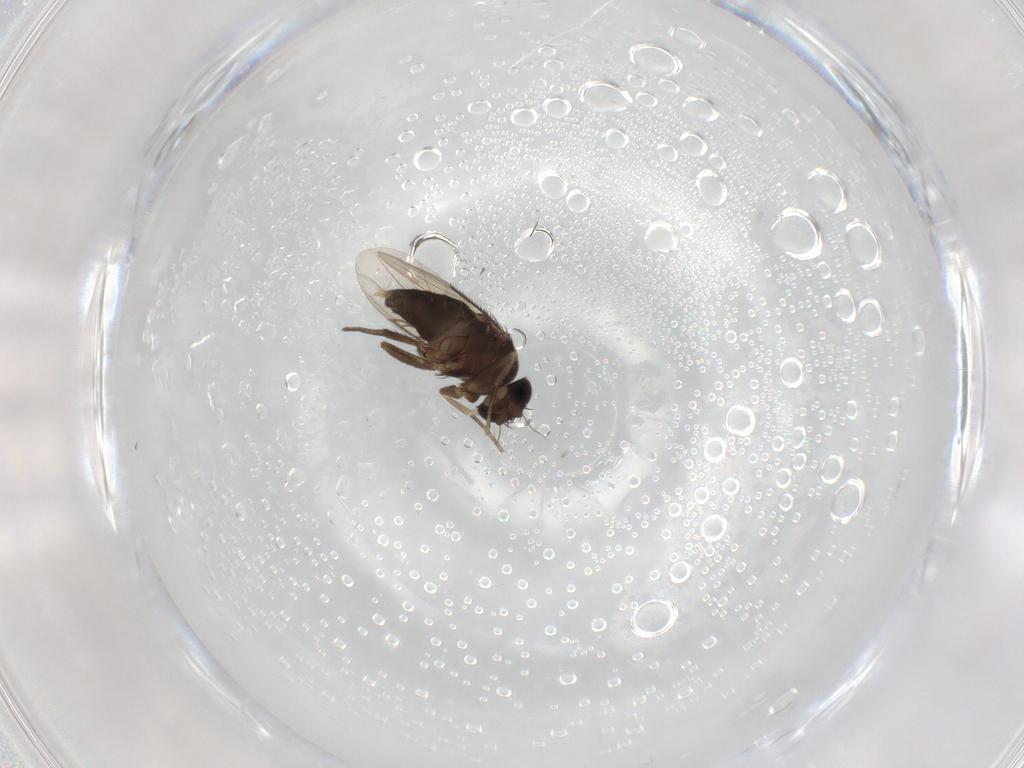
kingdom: Animalia
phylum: Arthropoda
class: Insecta
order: Diptera
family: Phoridae
